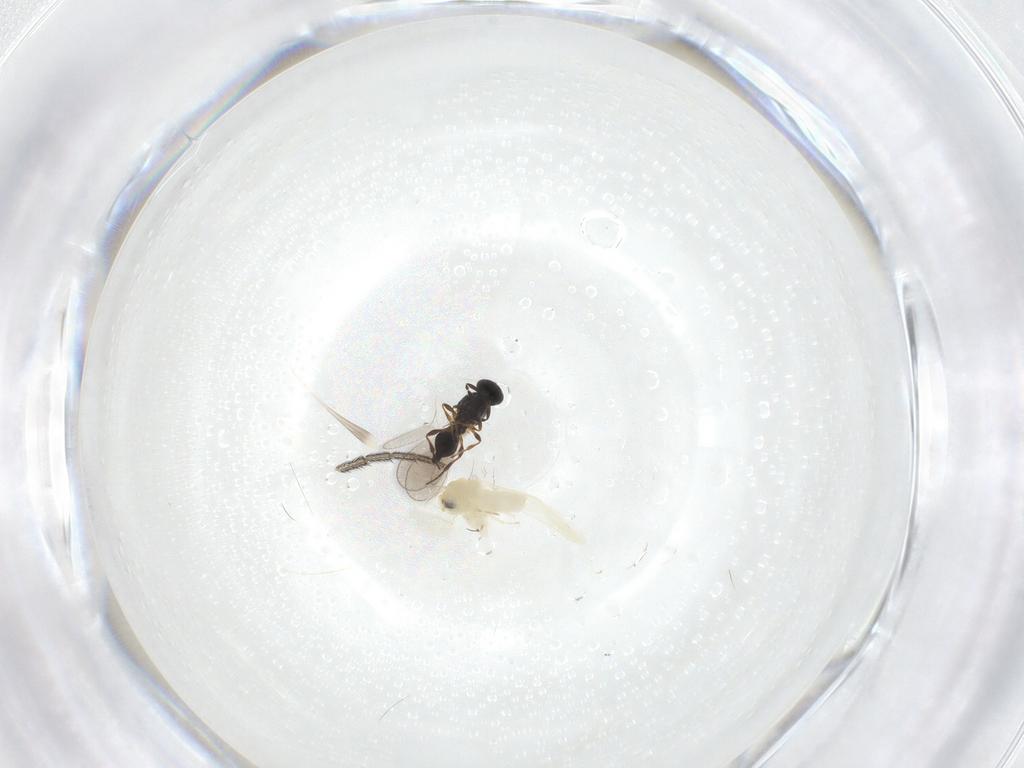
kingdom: Animalia
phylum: Arthropoda
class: Insecta
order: Hemiptera
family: Aleyrodidae
